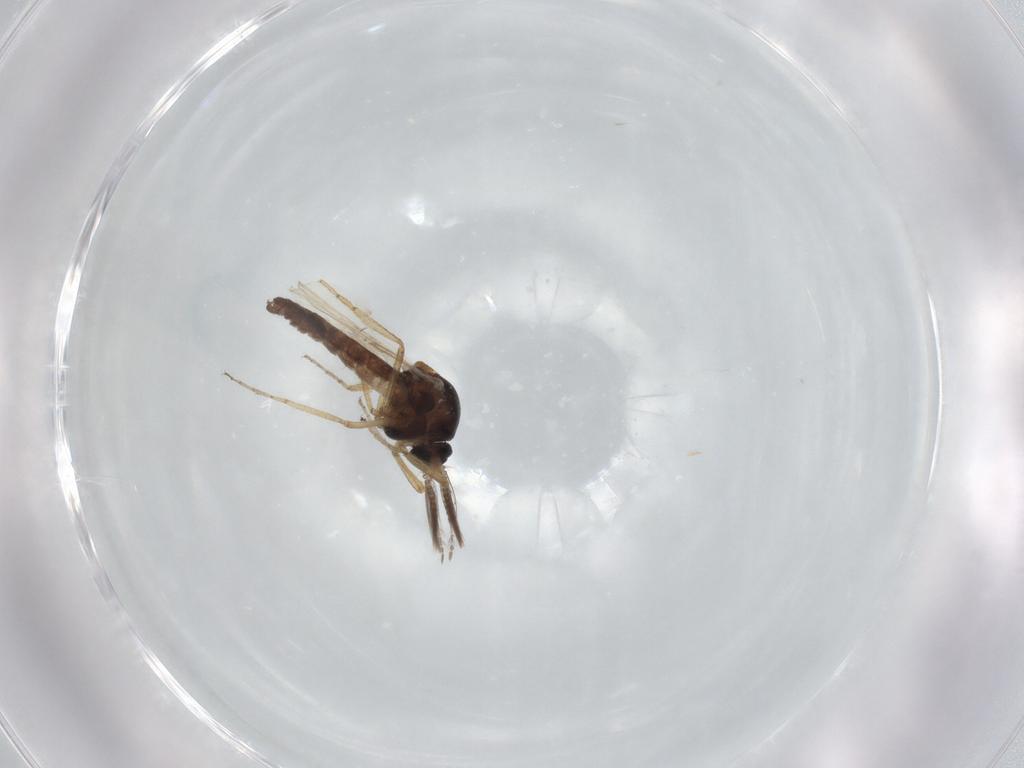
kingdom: Animalia
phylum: Arthropoda
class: Insecta
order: Diptera
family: Ceratopogonidae
